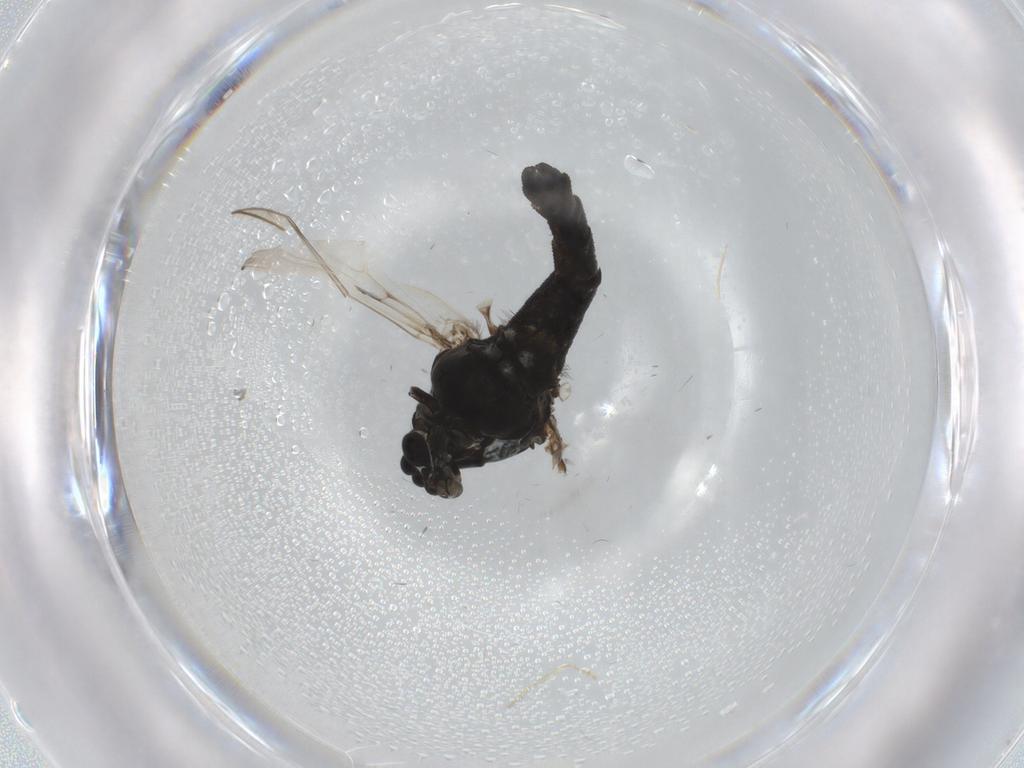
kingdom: Animalia
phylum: Arthropoda
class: Insecta
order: Diptera
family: Chironomidae
